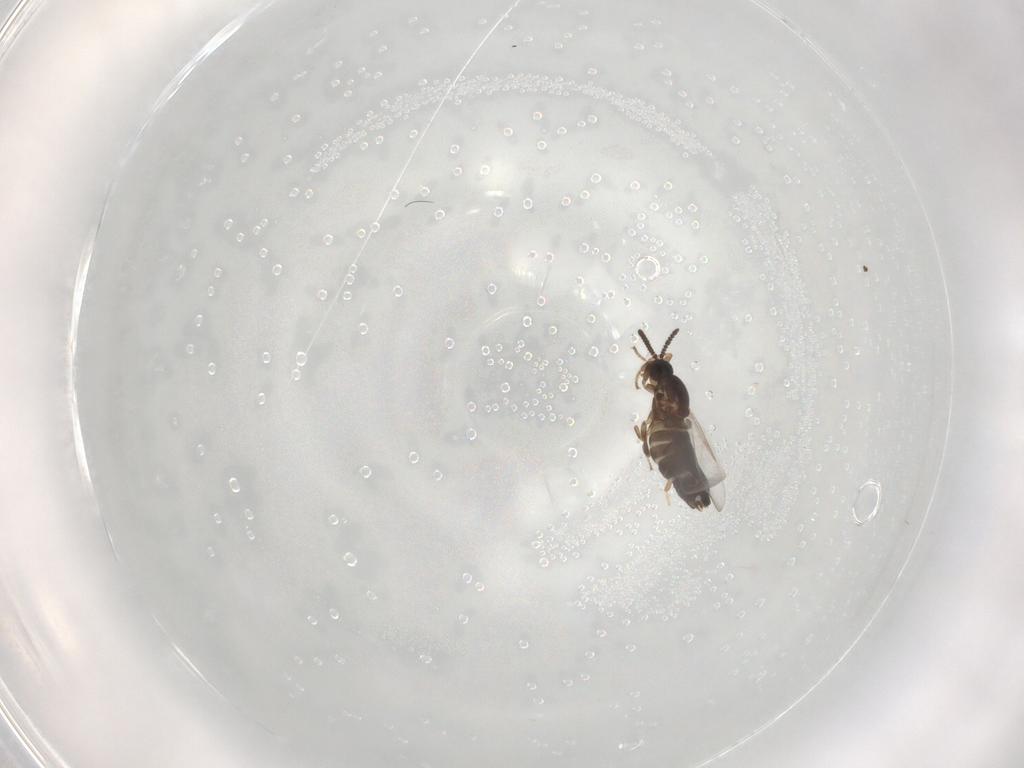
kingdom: Animalia
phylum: Arthropoda
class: Insecta
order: Diptera
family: Scatopsidae
